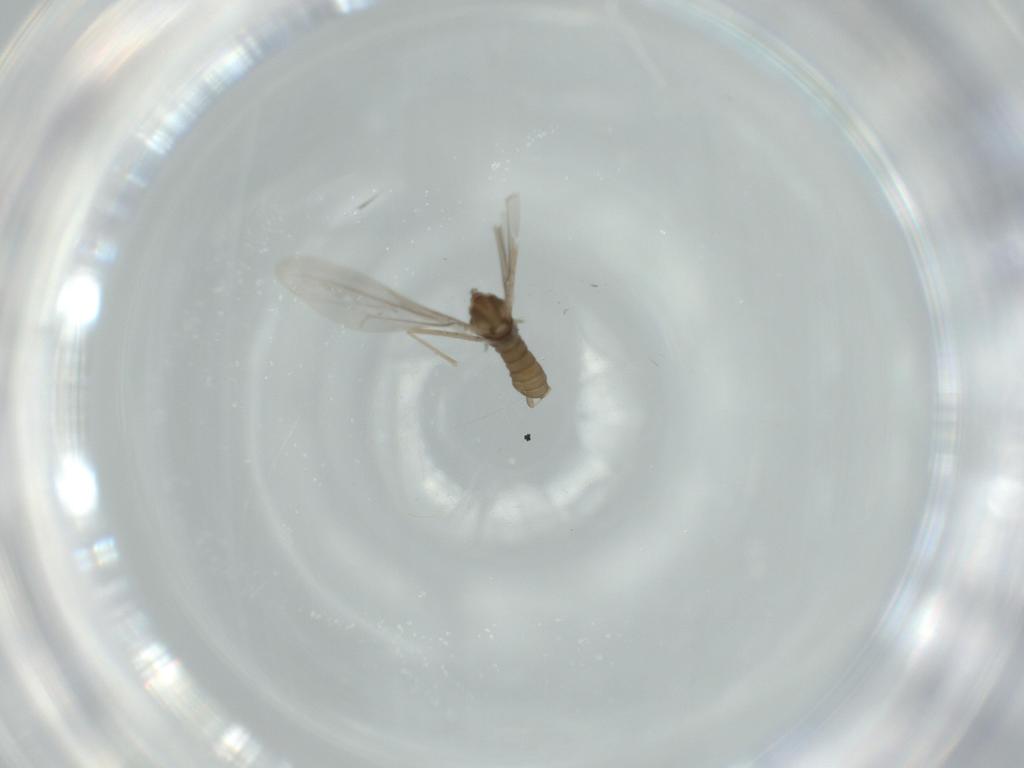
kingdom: Animalia
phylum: Arthropoda
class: Insecta
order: Diptera
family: Cecidomyiidae
